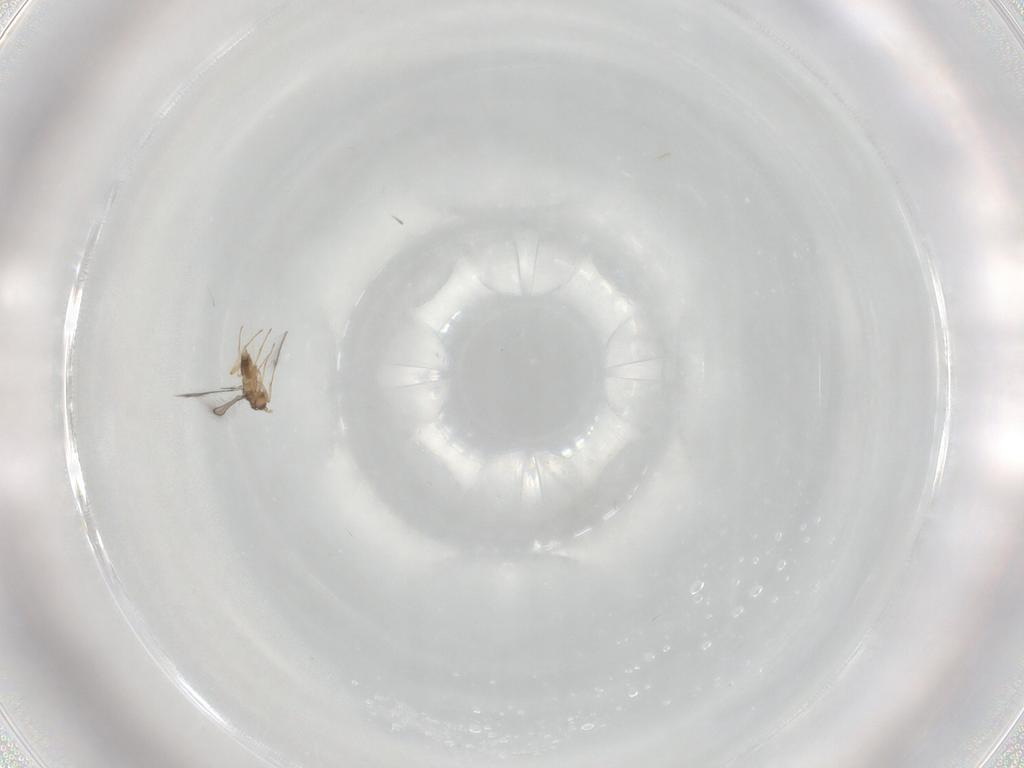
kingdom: Animalia
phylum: Arthropoda
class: Insecta
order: Hymenoptera
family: Mymaridae
